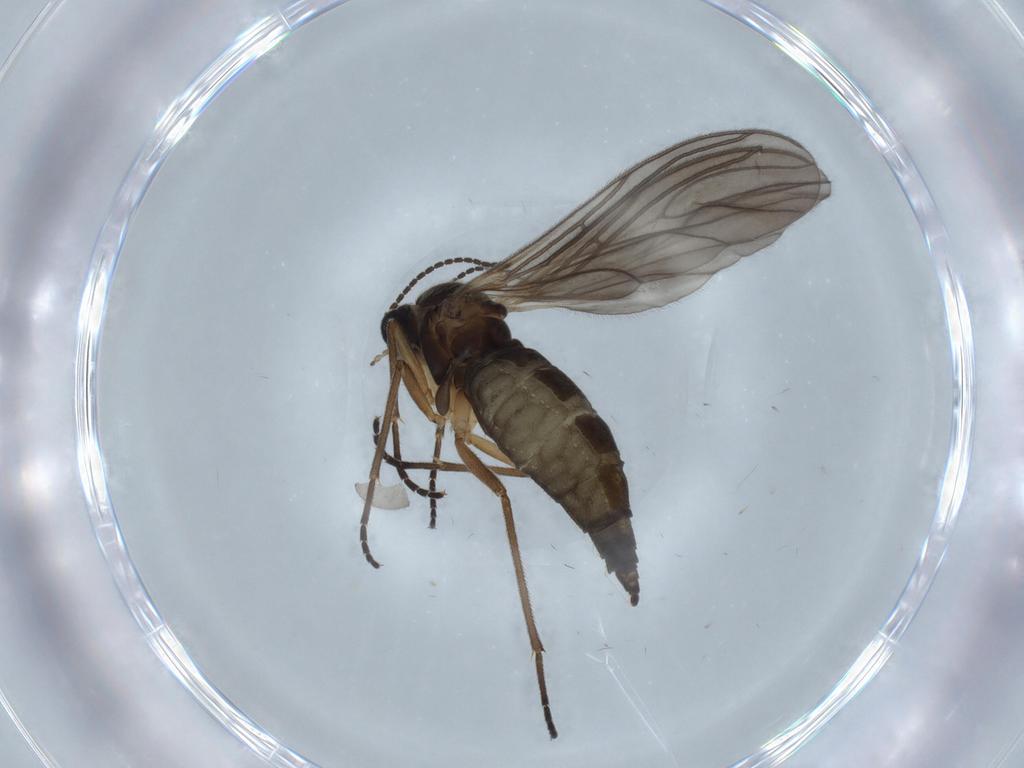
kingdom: Animalia
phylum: Arthropoda
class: Insecta
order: Diptera
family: Sciaridae
